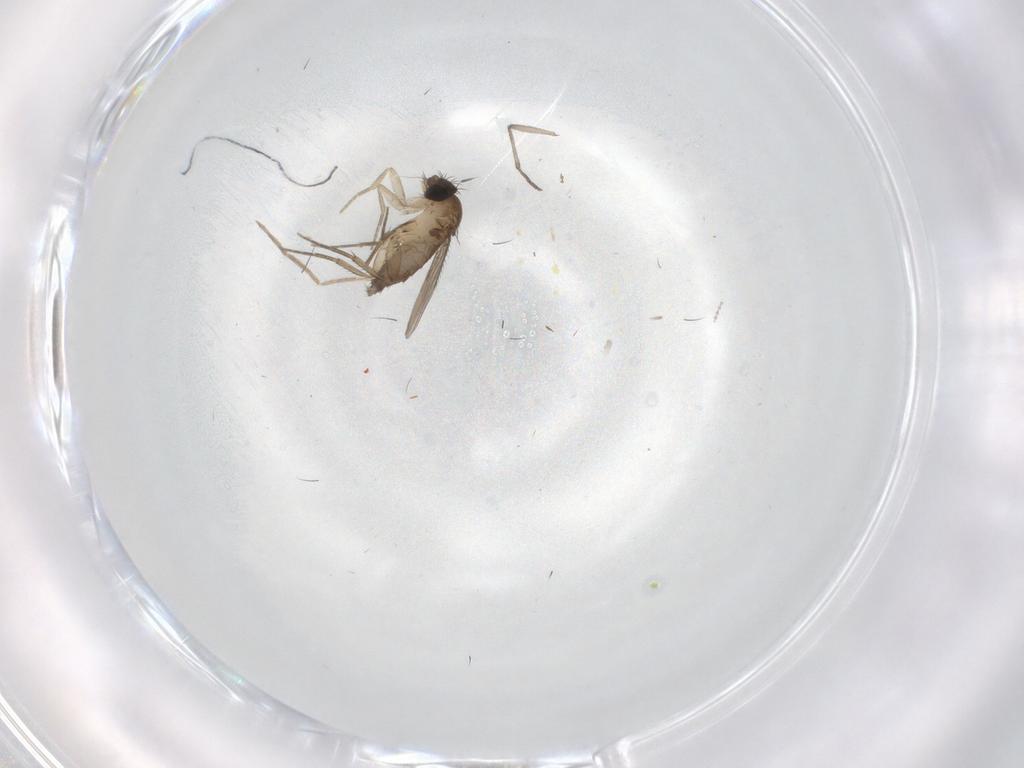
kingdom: Animalia
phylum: Arthropoda
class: Insecta
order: Diptera
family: Phoridae
